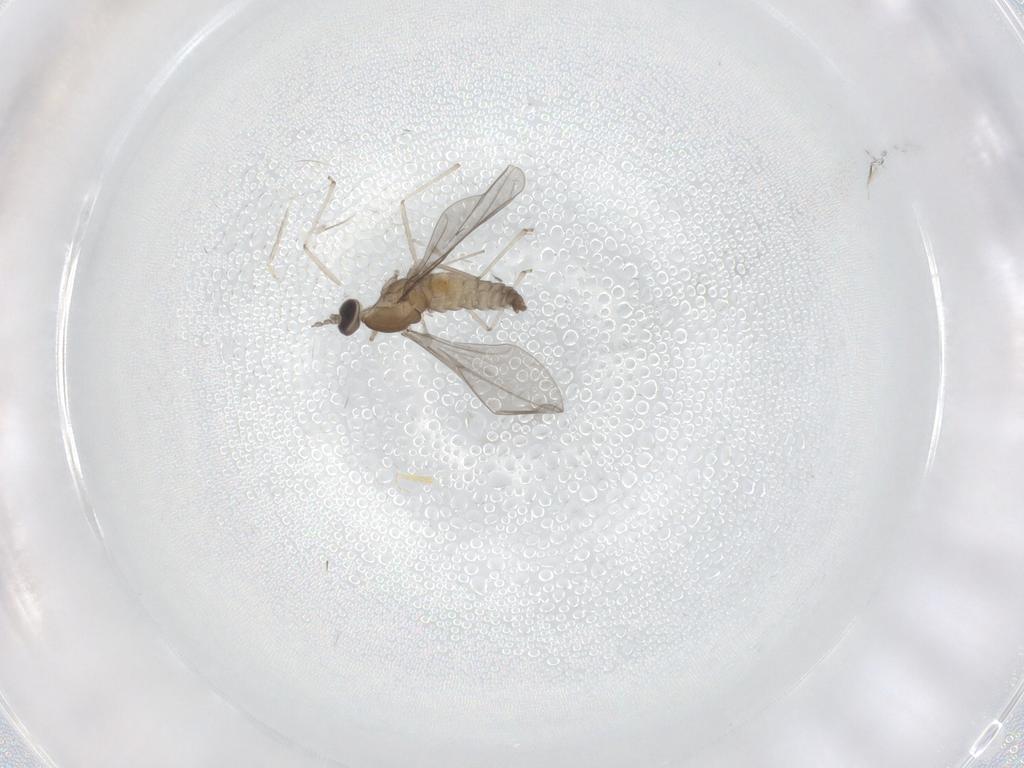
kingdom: Animalia
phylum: Arthropoda
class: Insecta
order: Diptera
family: Cecidomyiidae
